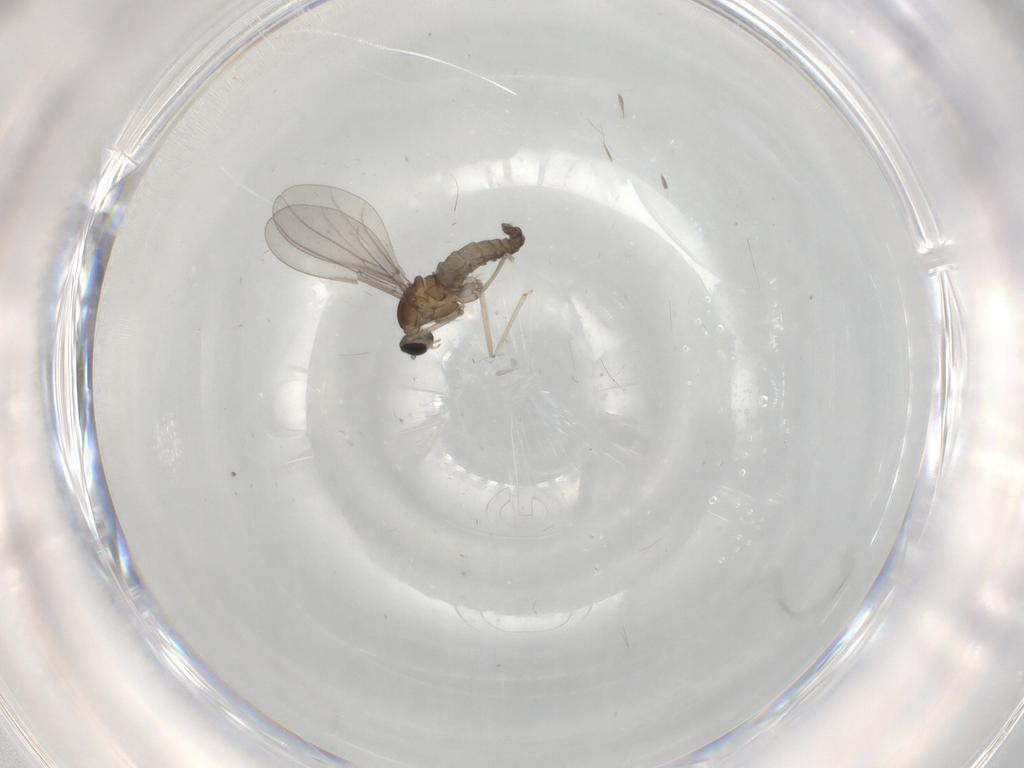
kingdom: Animalia
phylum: Arthropoda
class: Insecta
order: Diptera
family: Cecidomyiidae
